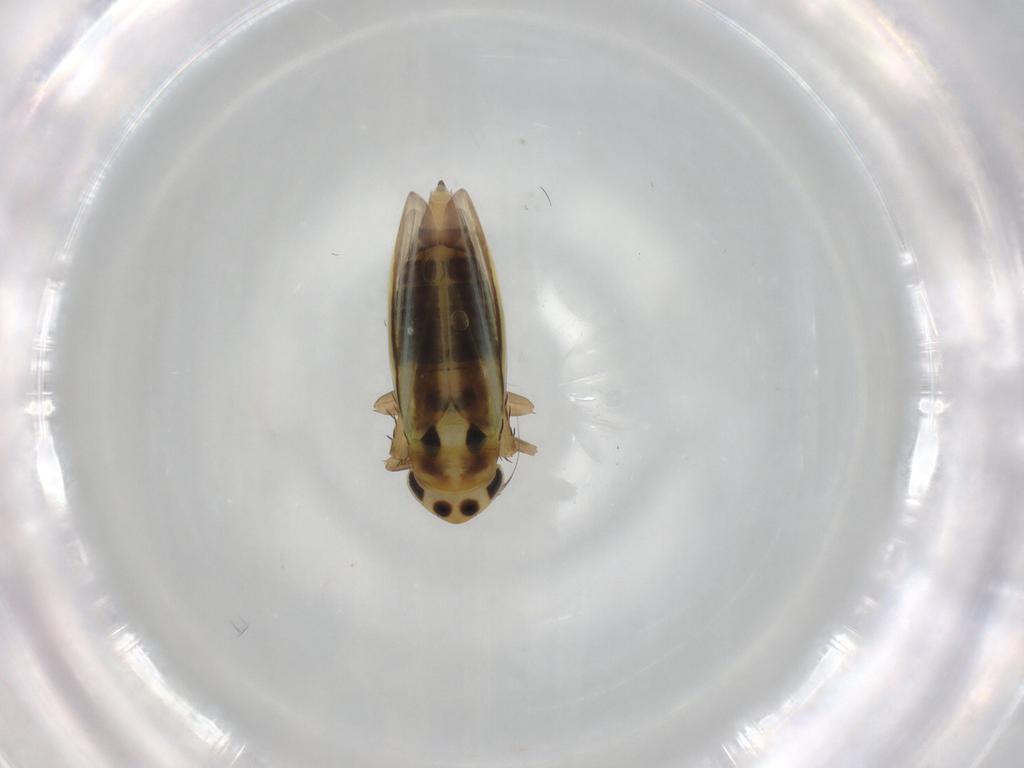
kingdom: Animalia
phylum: Arthropoda
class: Insecta
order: Hemiptera
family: Cicadellidae
